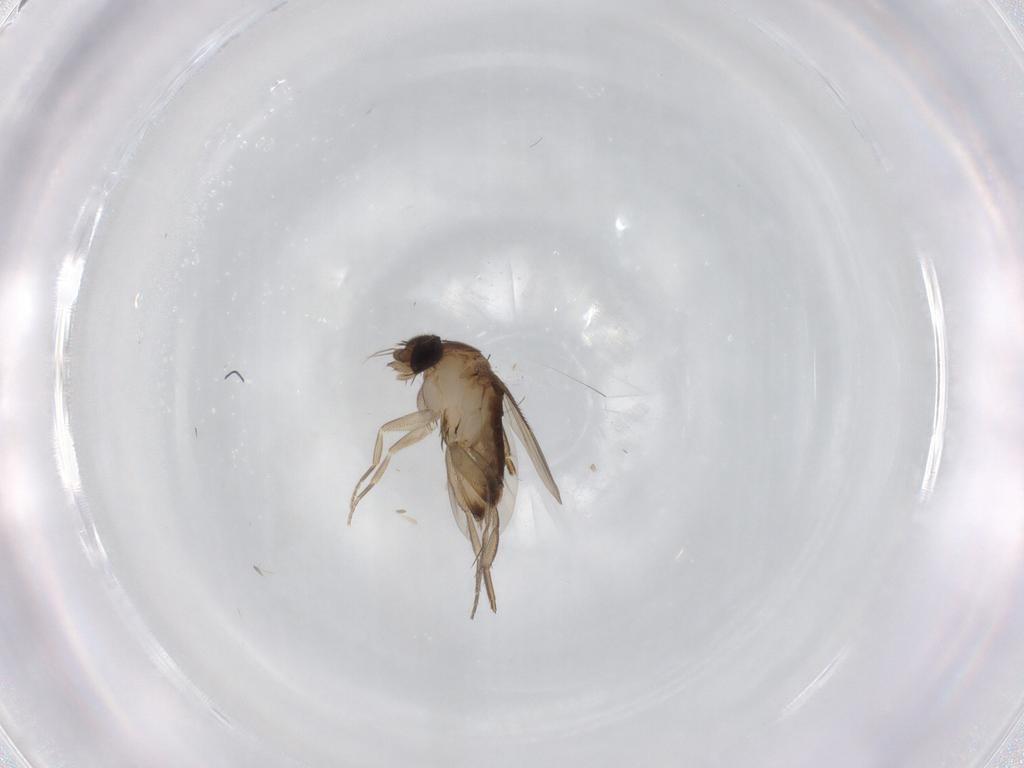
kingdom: Animalia
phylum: Arthropoda
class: Insecta
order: Diptera
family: Phoridae
